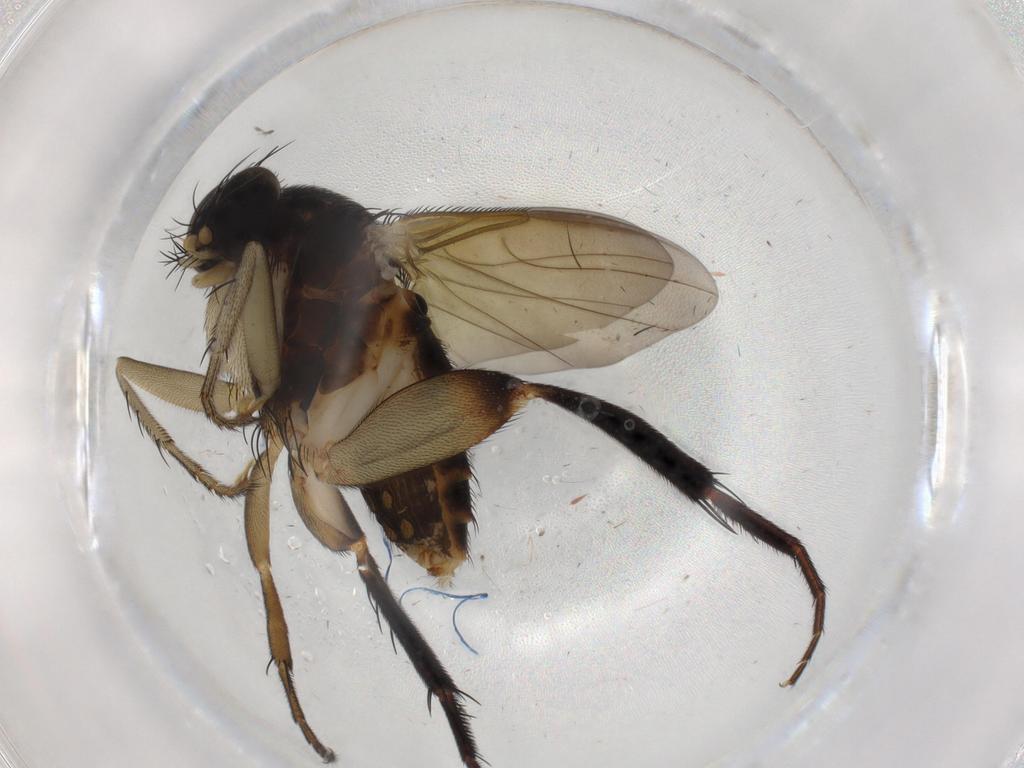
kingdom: Animalia
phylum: Arthropoda
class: Insecta
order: Diptera
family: Phoridae
